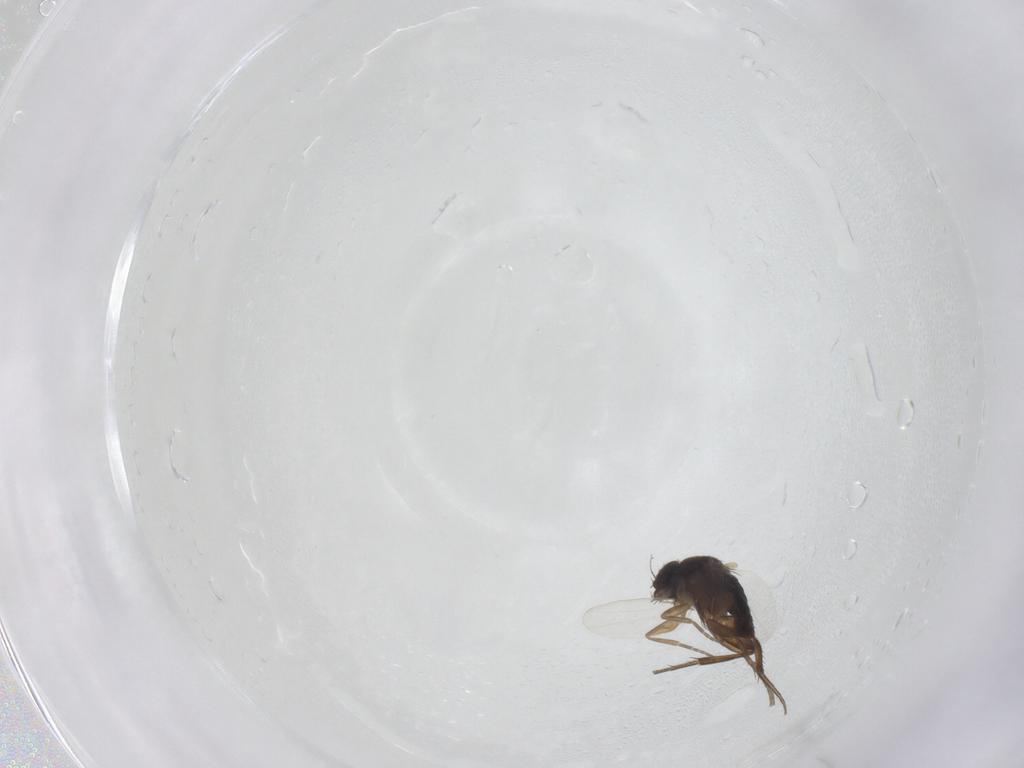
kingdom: Animalia
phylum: Arthropoda
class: Insecta
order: Diptera
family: Phoridae
